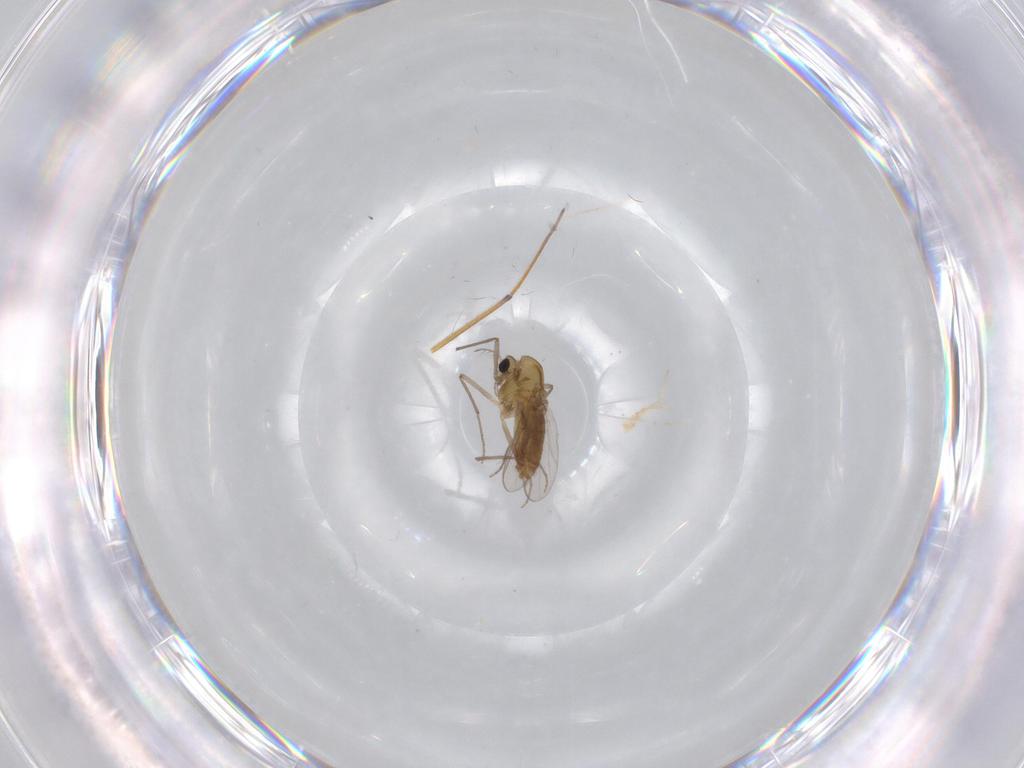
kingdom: Animalia
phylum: Arthropoda
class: Insecta
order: Diptera
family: Chironomidae
